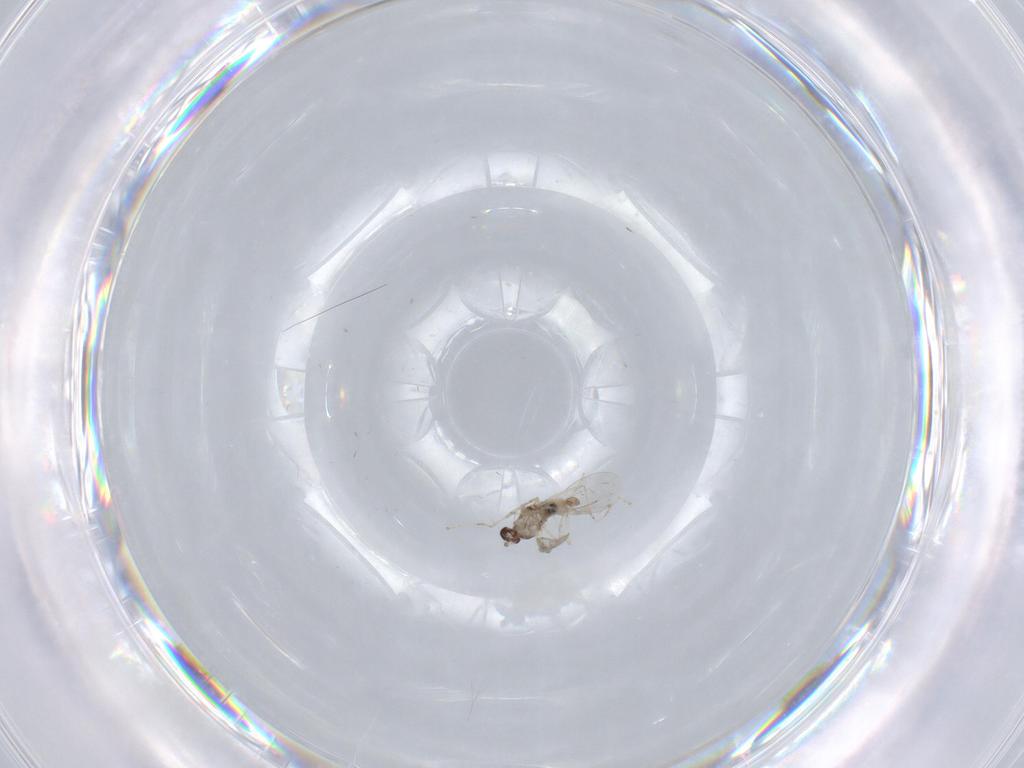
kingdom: Animalia
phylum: Arthropoda
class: Insecta
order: Diptera
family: Cecidomyiidae
